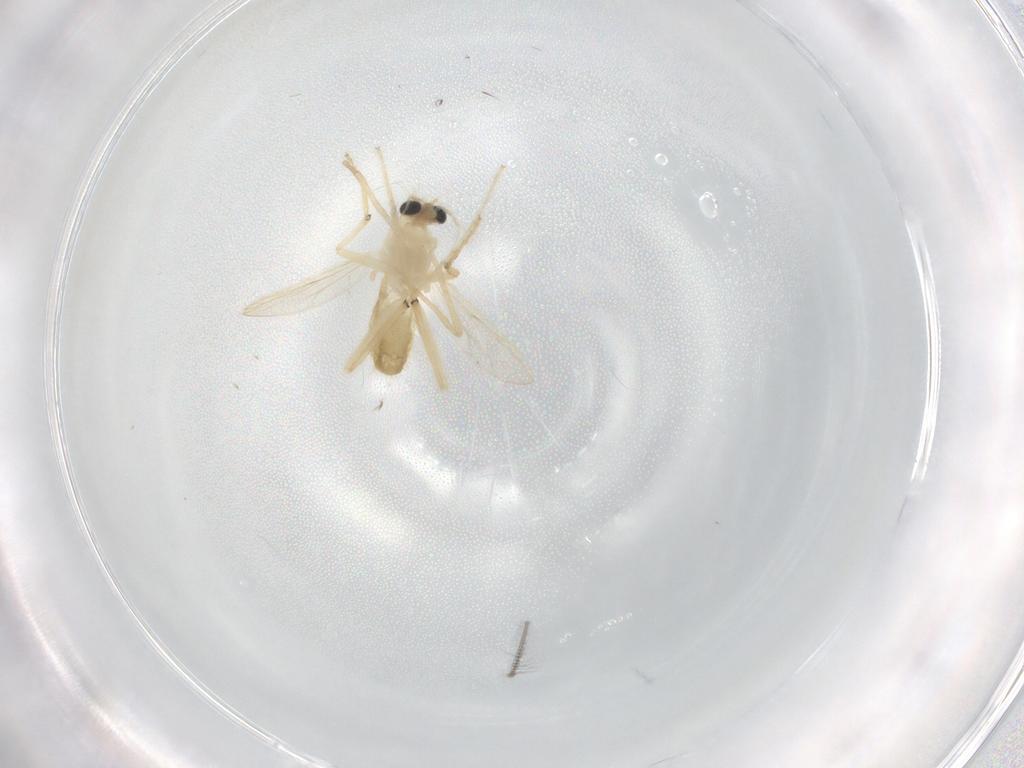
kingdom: Animalia
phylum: Arthropoda
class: Insecta
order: Diptera
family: Chironomidae
